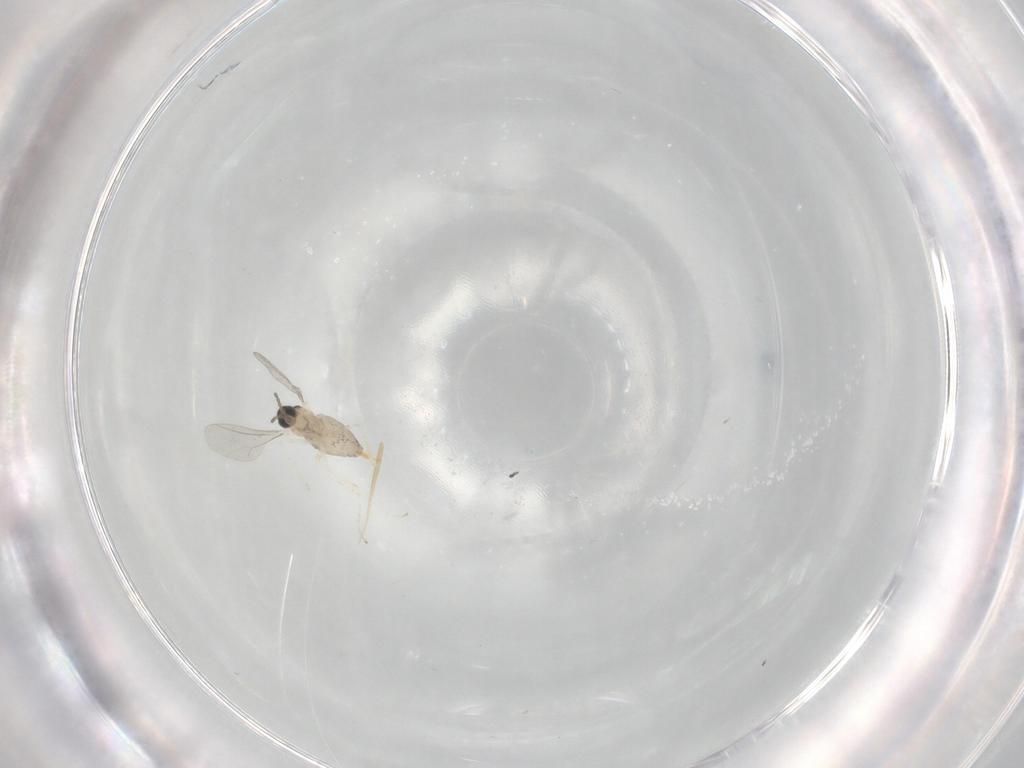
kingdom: Animalia
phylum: Arthropoda
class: Insecta
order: Diptera
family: Cecidomyiidae
